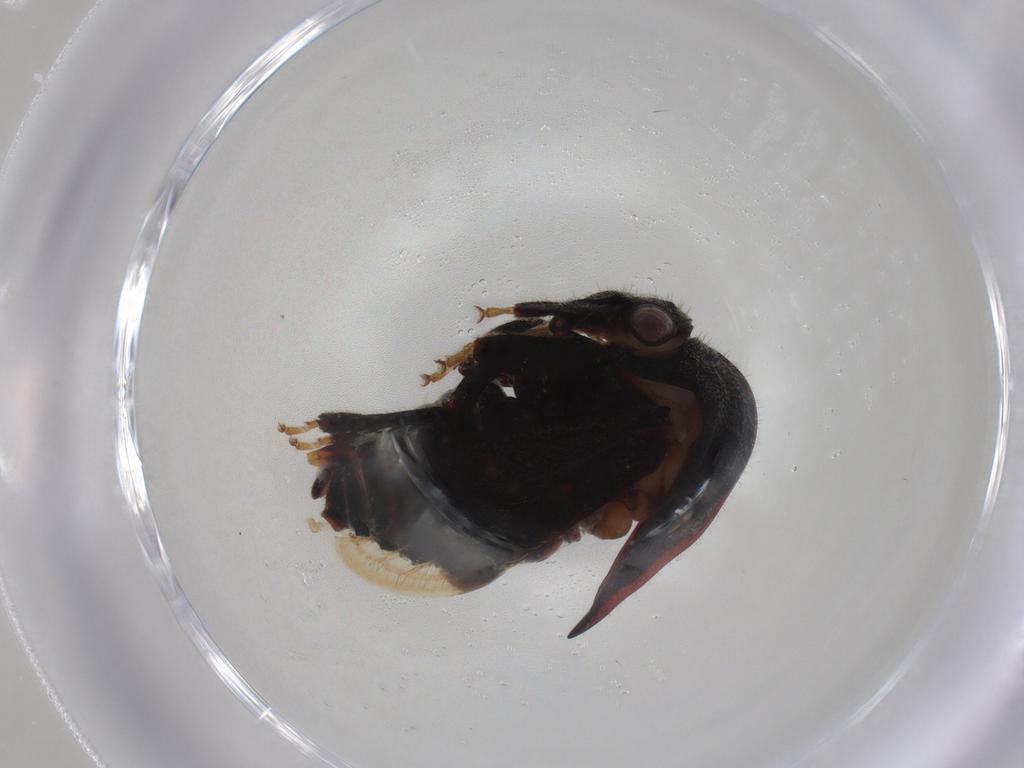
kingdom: Animalia
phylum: Arthropoda
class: Insecta
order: Hemiptera
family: Membracidae
